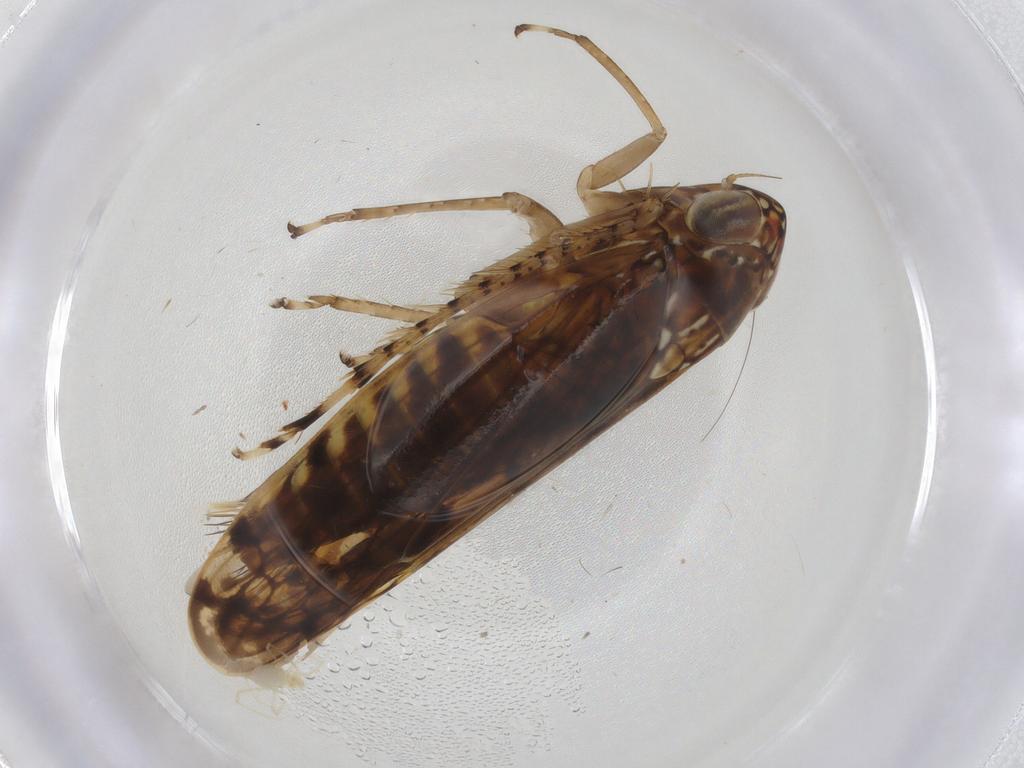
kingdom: Animalia
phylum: Arthropoda
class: Insecta
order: Hemiptera
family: Cicadellidae
